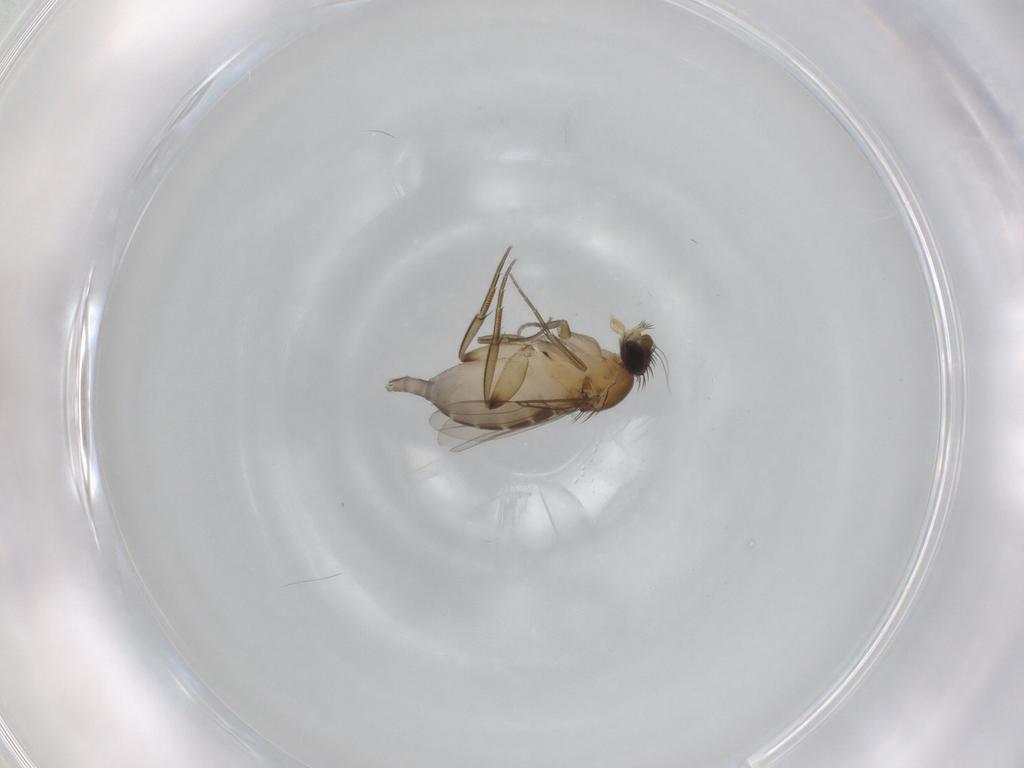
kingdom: Animalia
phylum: Arthropoda
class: Insecta
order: Diptera
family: Phoridae
